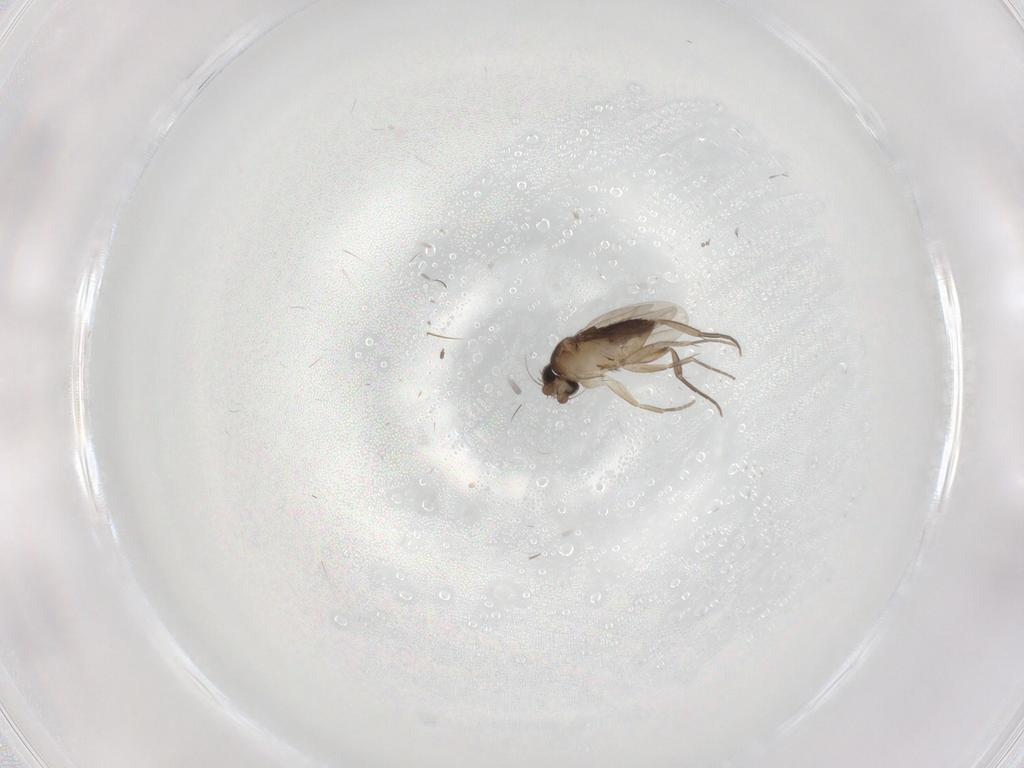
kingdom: Animalia
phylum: Arthropoda
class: Insecta
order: Diptera
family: Phoridae
